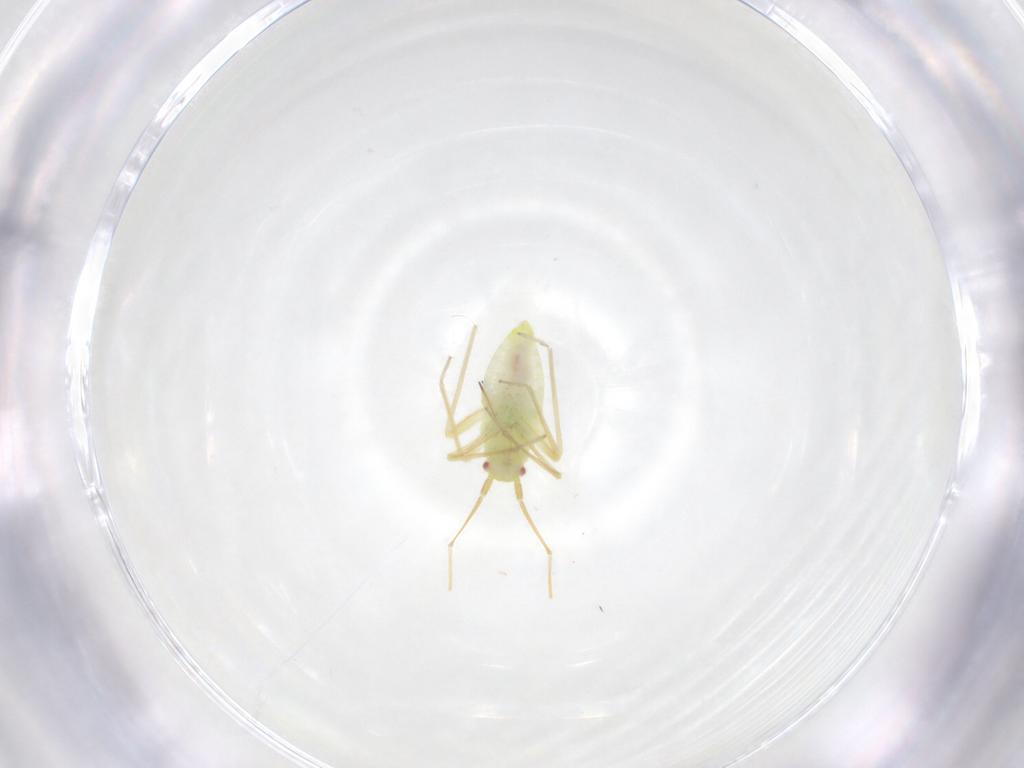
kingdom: Animalia
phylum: Arthropoda
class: Insecta
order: Hemiptera
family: Miridae
